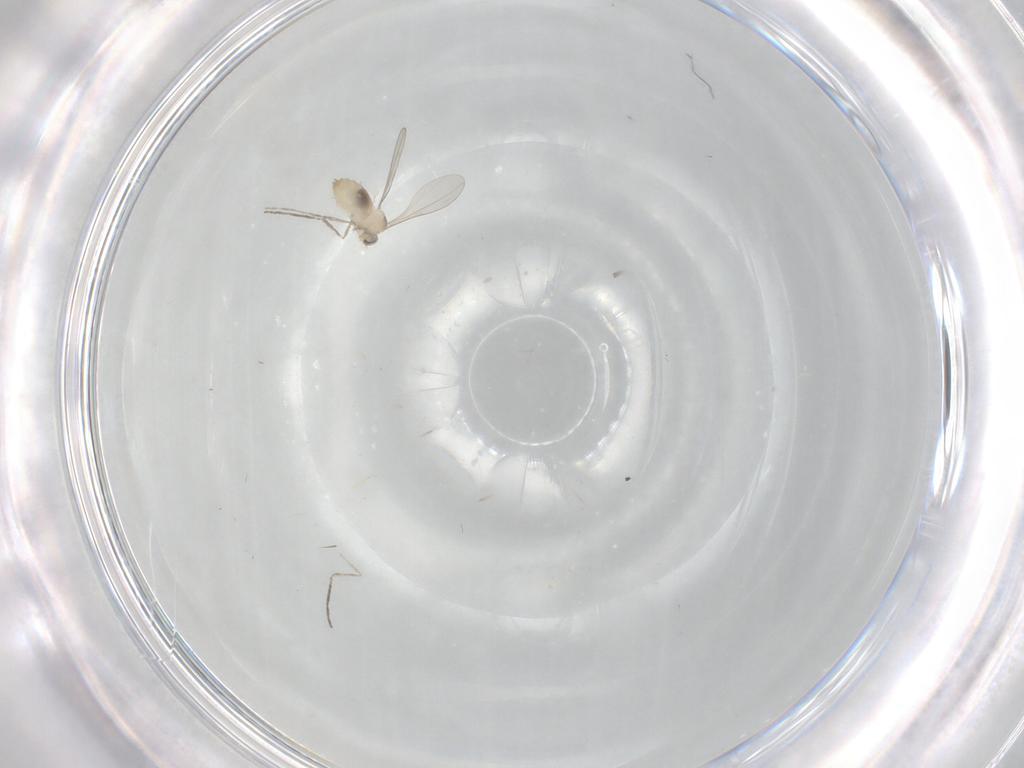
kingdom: Animalia
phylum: Arthropoda
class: Insecta
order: Diptera
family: Cecidomyiidae
